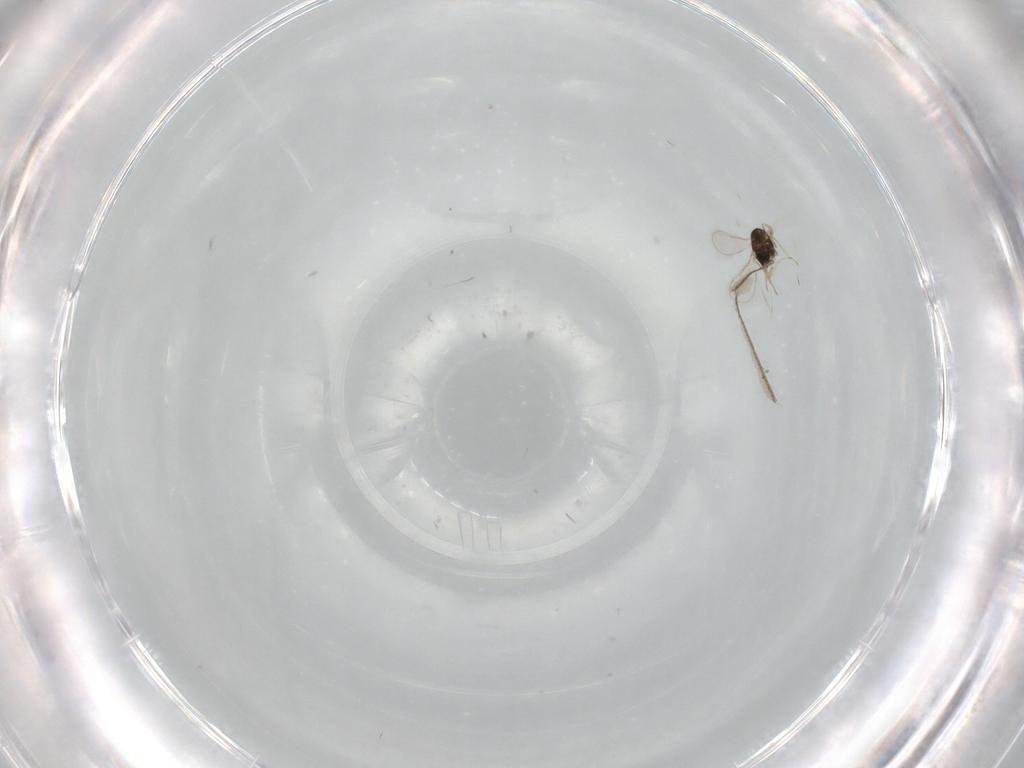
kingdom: Animalia
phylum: Arthropoda
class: Insecta
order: Hymenoptera
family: Aphelinidae
